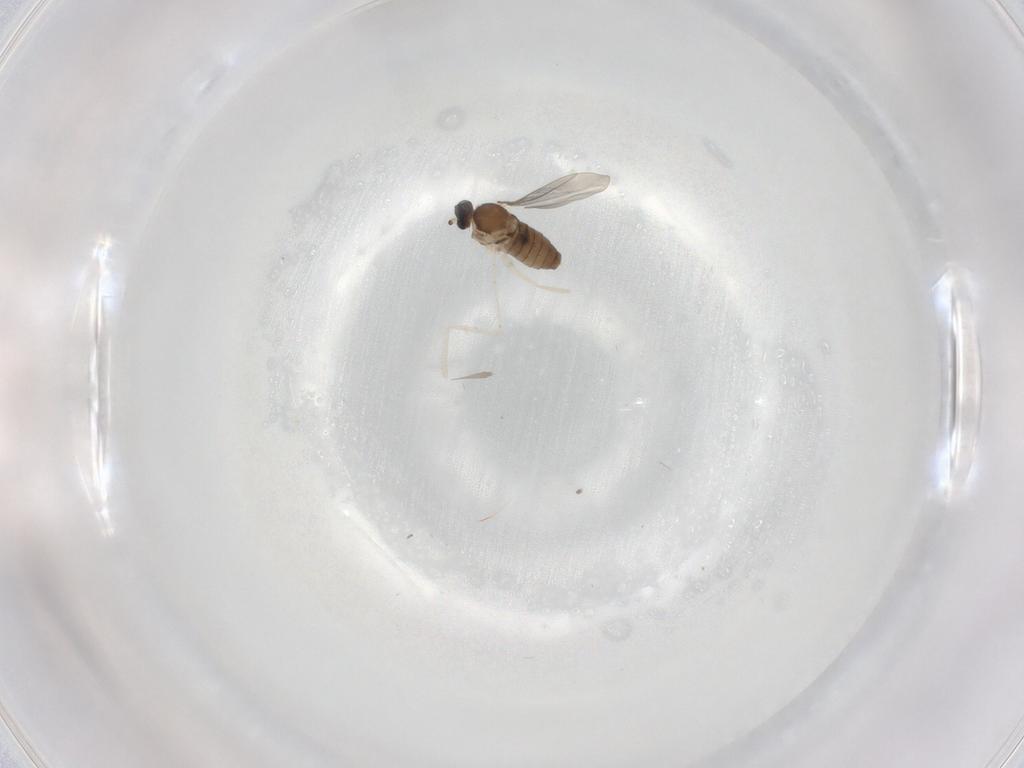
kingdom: Animalia
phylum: Arthropoda
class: Insecta
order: Diptera
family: Cecidomyiidae
